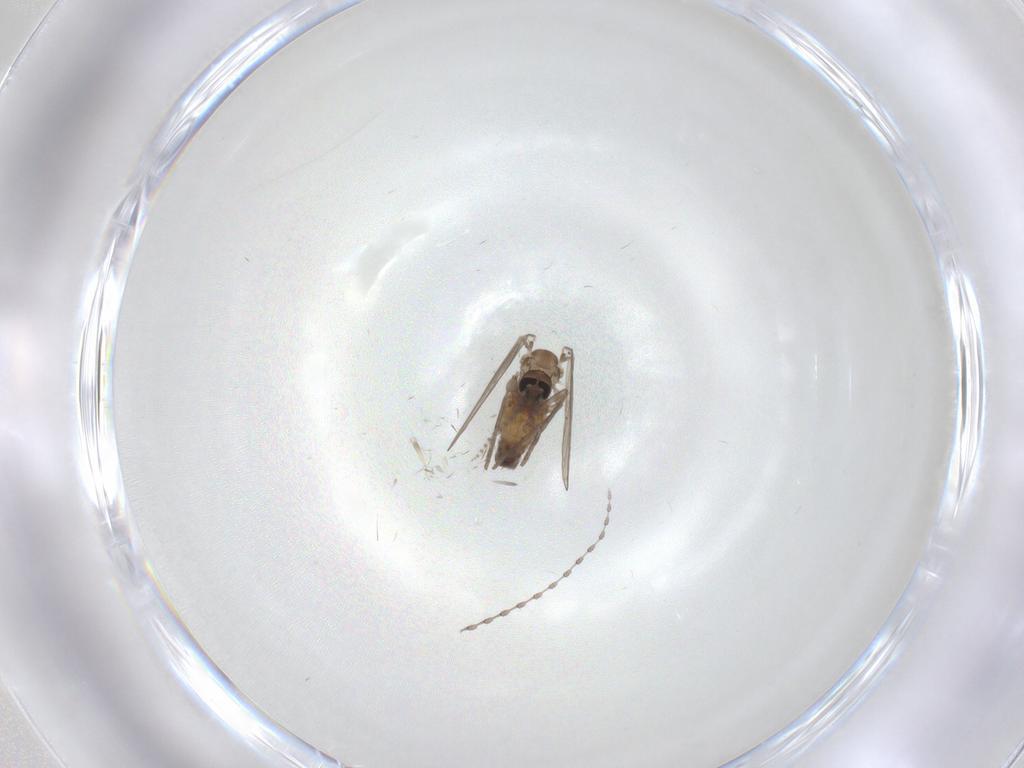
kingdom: Animalia
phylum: Arthropoda
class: Insecta
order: Diptera
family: Psychodidae
